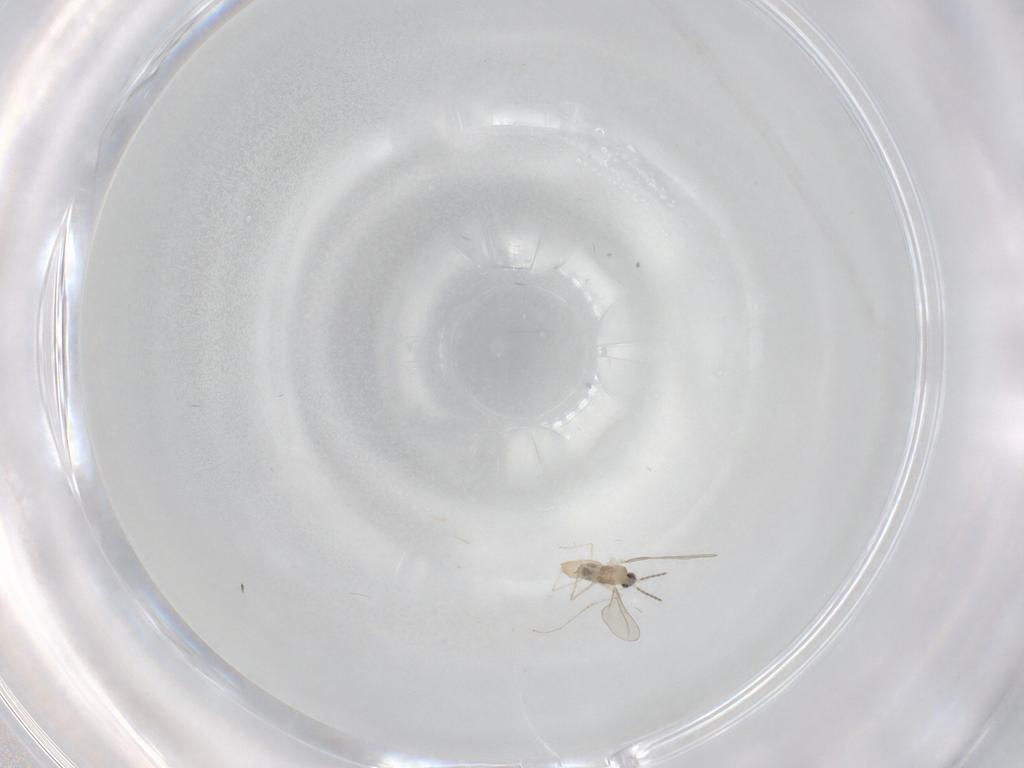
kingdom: Animalia
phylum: Arthropoda
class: Insecta
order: Diptera
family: Cecidomyiidae
